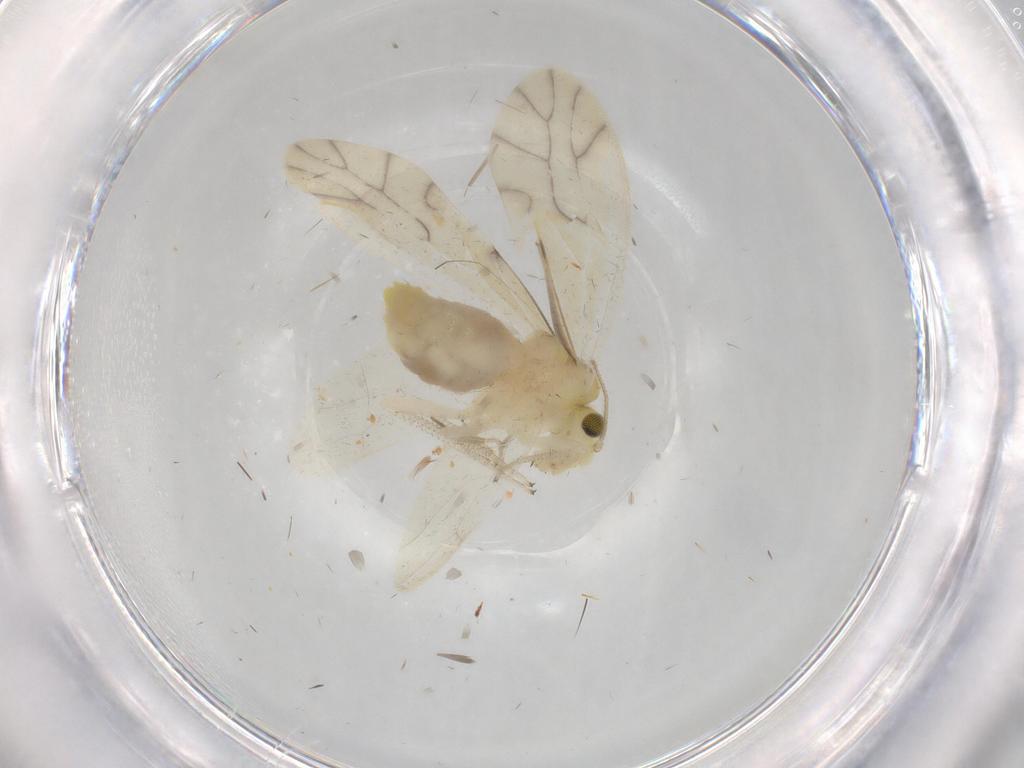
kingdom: Animalia
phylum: Arthropoda
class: Insecta
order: Psocodea
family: Caeciliusidae
